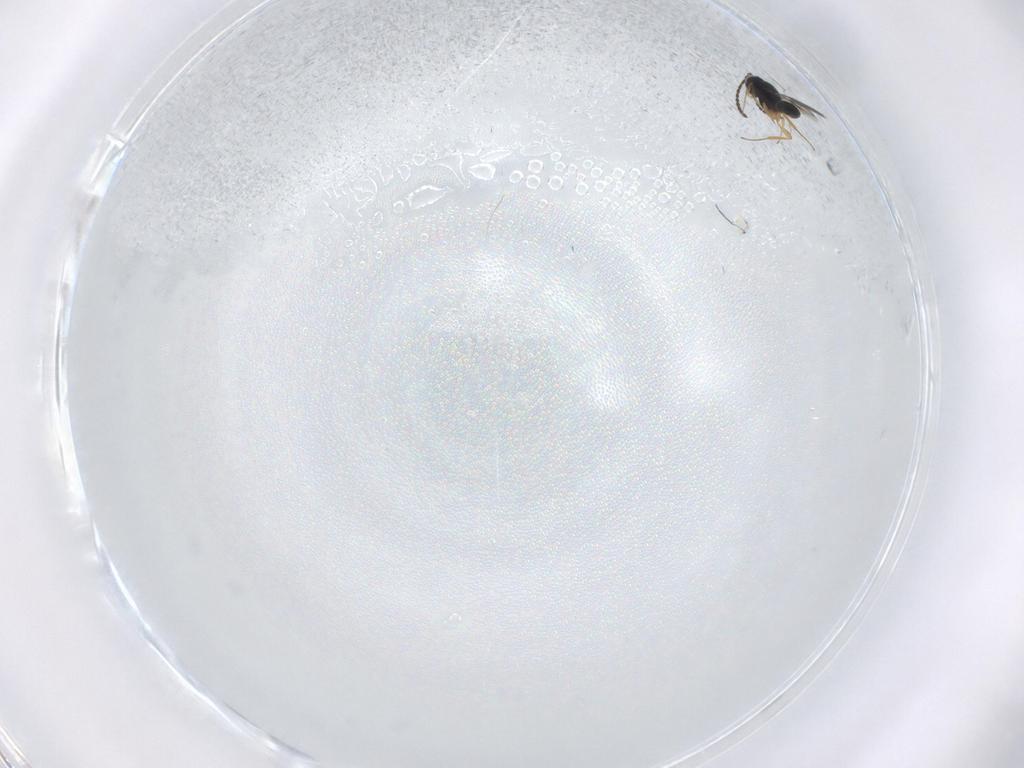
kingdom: Animalia
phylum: Arthropoda
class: Insecta
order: Hymenoptera
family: Scelionidae
